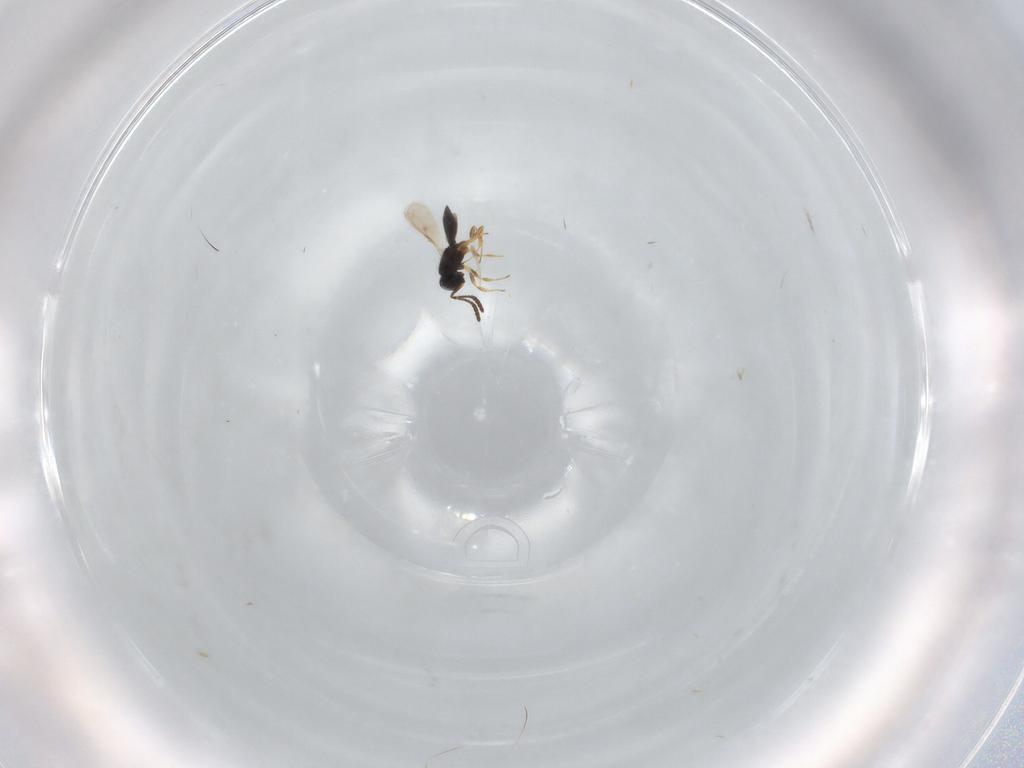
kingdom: Animalia
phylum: Arthropoda
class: Insecta
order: Hymenoptera
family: Scelionidae
